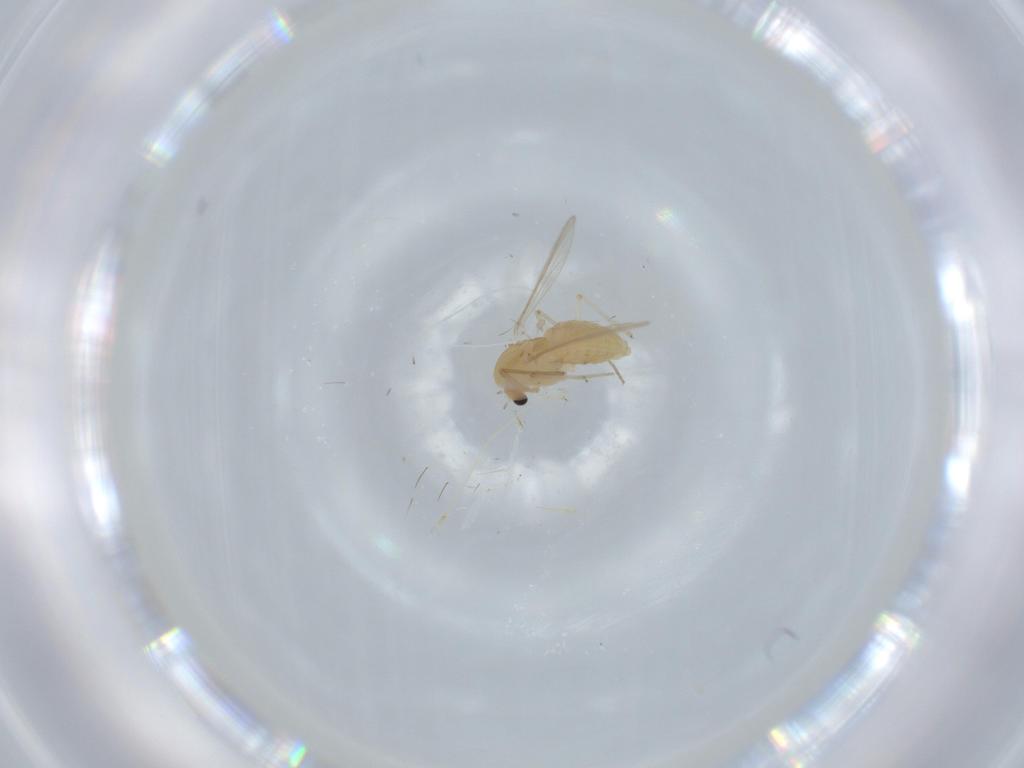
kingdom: Animalia
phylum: Arthropoda
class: Insecta
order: Diptera
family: Chironomidae
